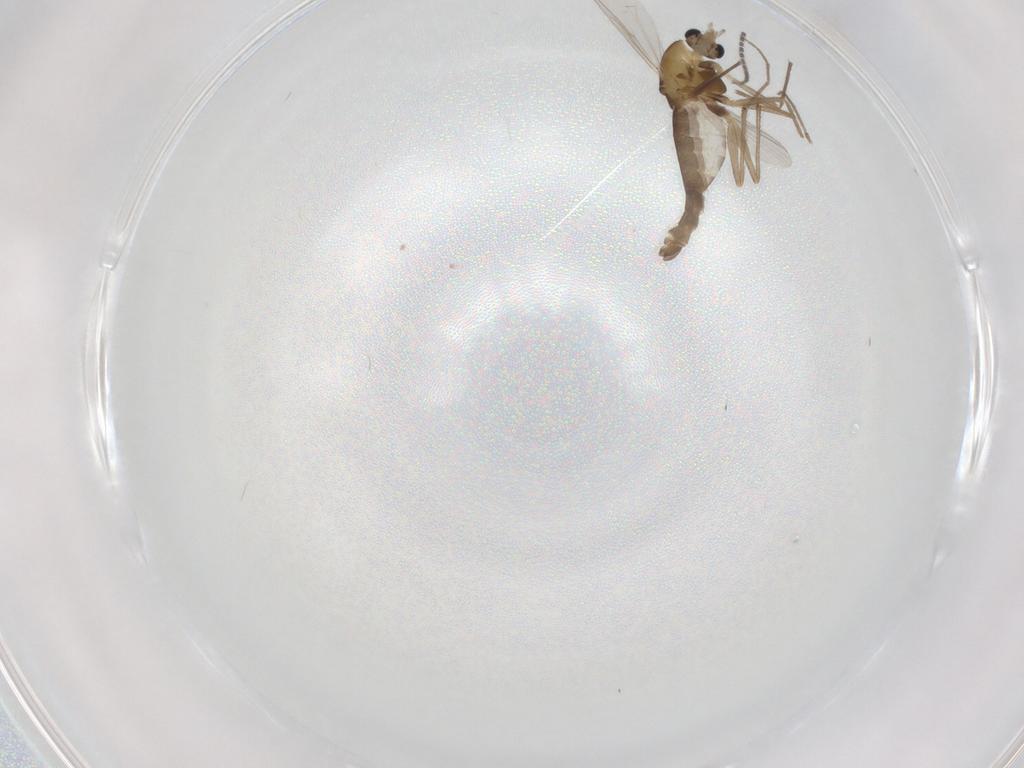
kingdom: Animalia
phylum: Arthropoda
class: Insecta
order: Diptera
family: Chironomidae
